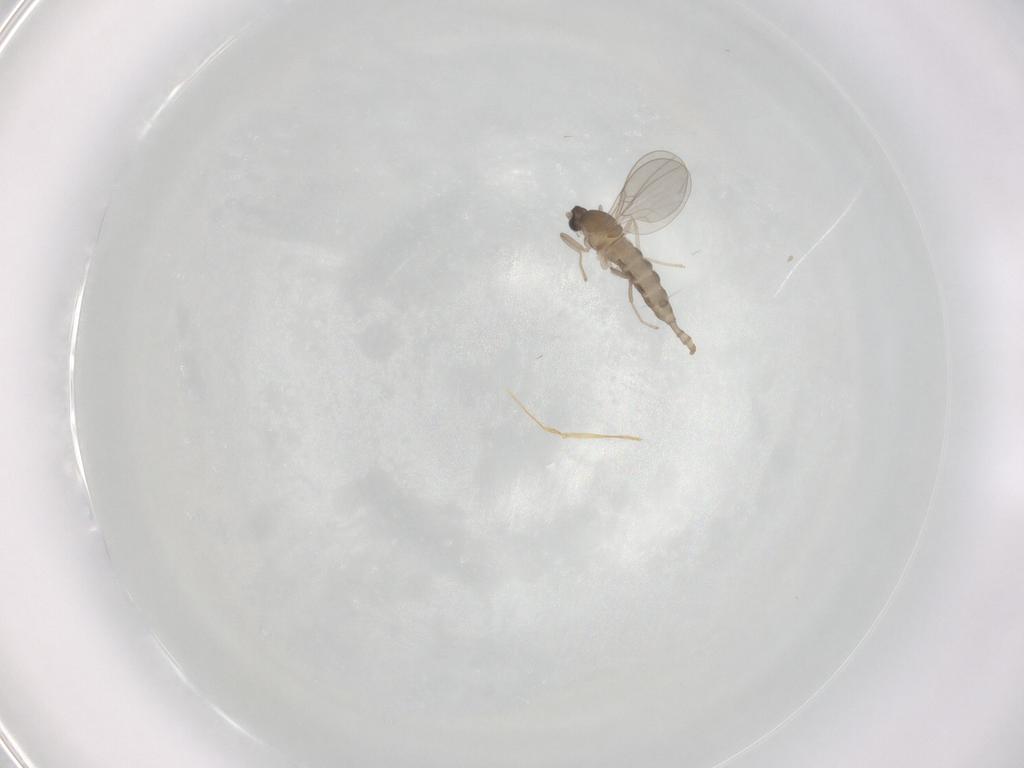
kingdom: Animalia
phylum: Arthropoda
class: Insecta
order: Diptera
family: Cecidomyiidae
